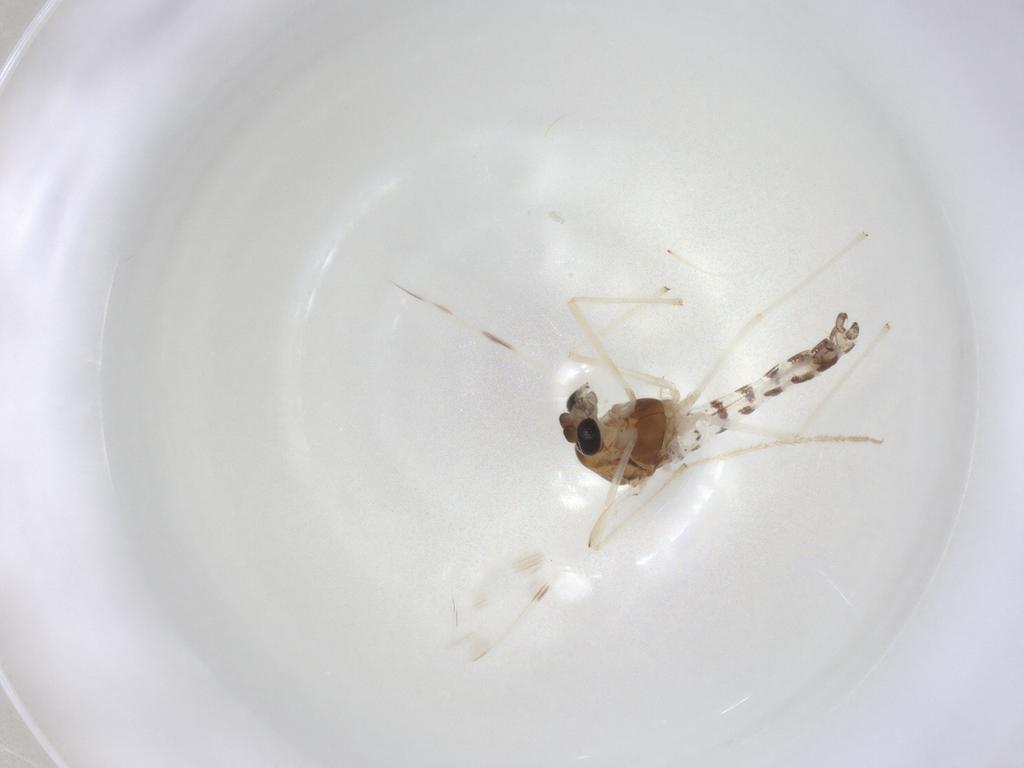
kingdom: Animalia
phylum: Arthropoda
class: Insecta
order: Diptera
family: Chironomidae
